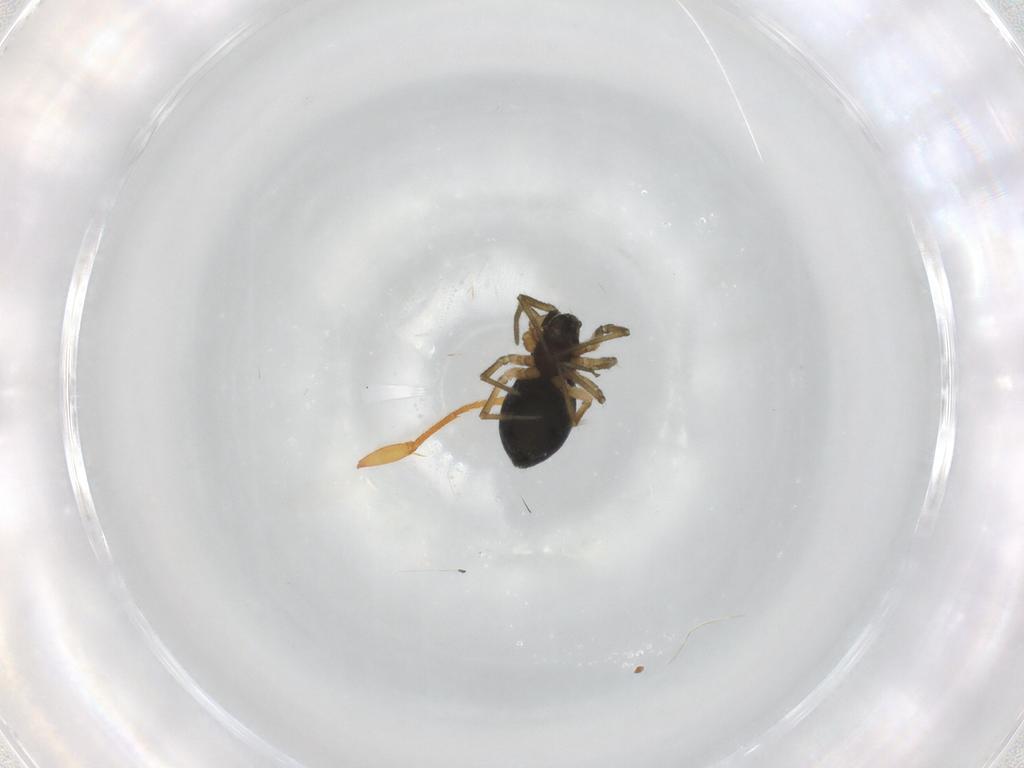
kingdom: Animalia
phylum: Arthropoda
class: Arachnida
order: Araneae
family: Linyphiidae
